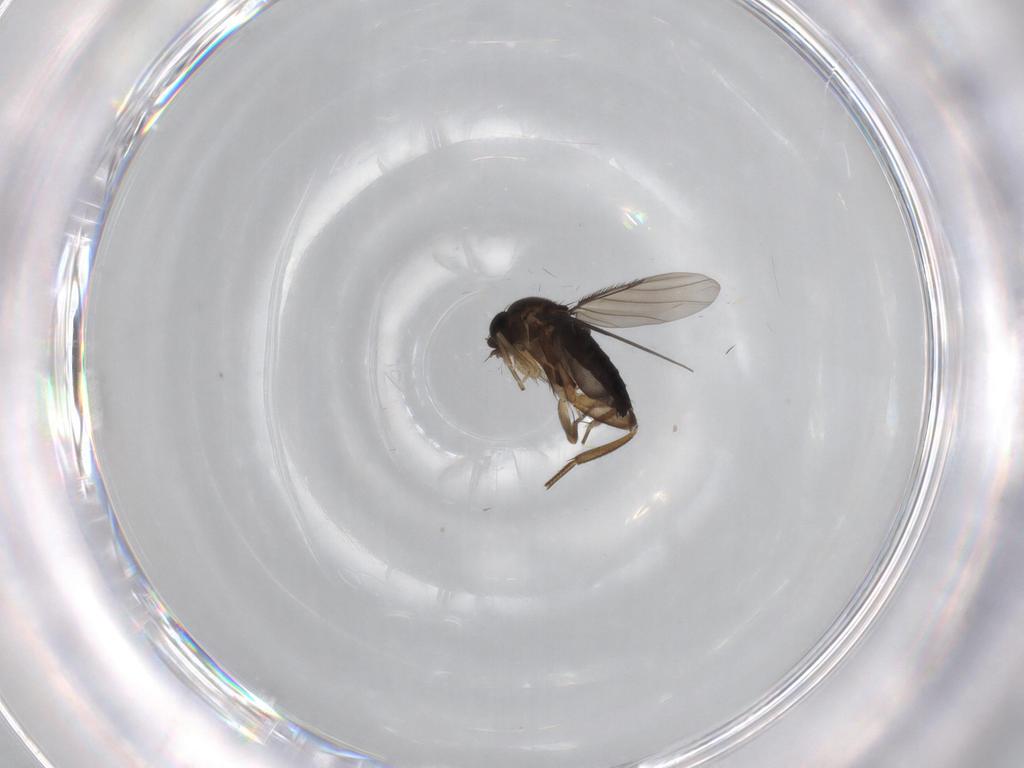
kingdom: Animalia
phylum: Arthropoda
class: Insecta
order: Diptera
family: Phoridae
